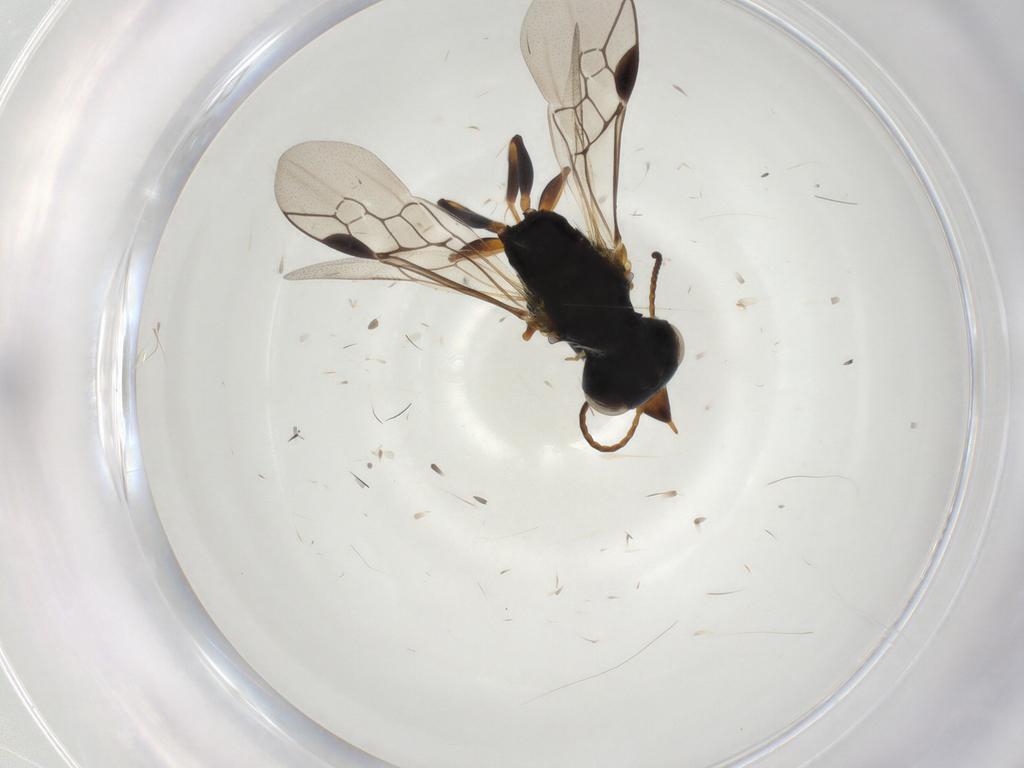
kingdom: Animalia
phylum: Arthropoda
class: Insecta
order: Hymenoptera
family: Pemphredonidae
